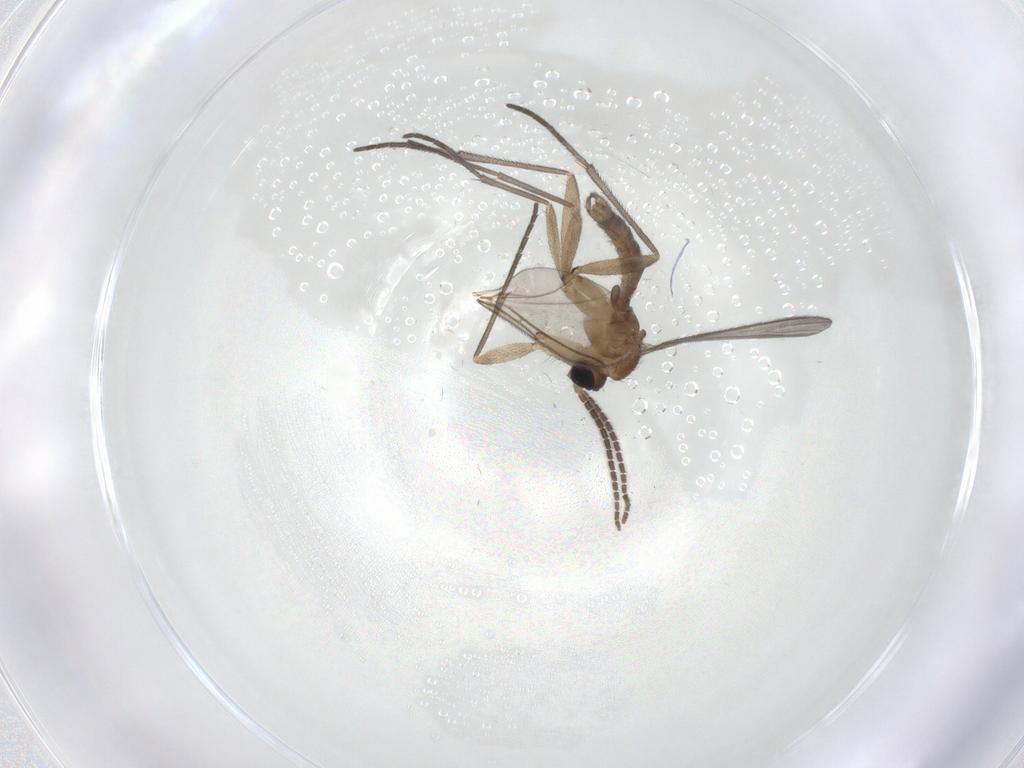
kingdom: Animalia
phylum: Arthropoda
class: Insecta
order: Diptera
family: Sciaridae
